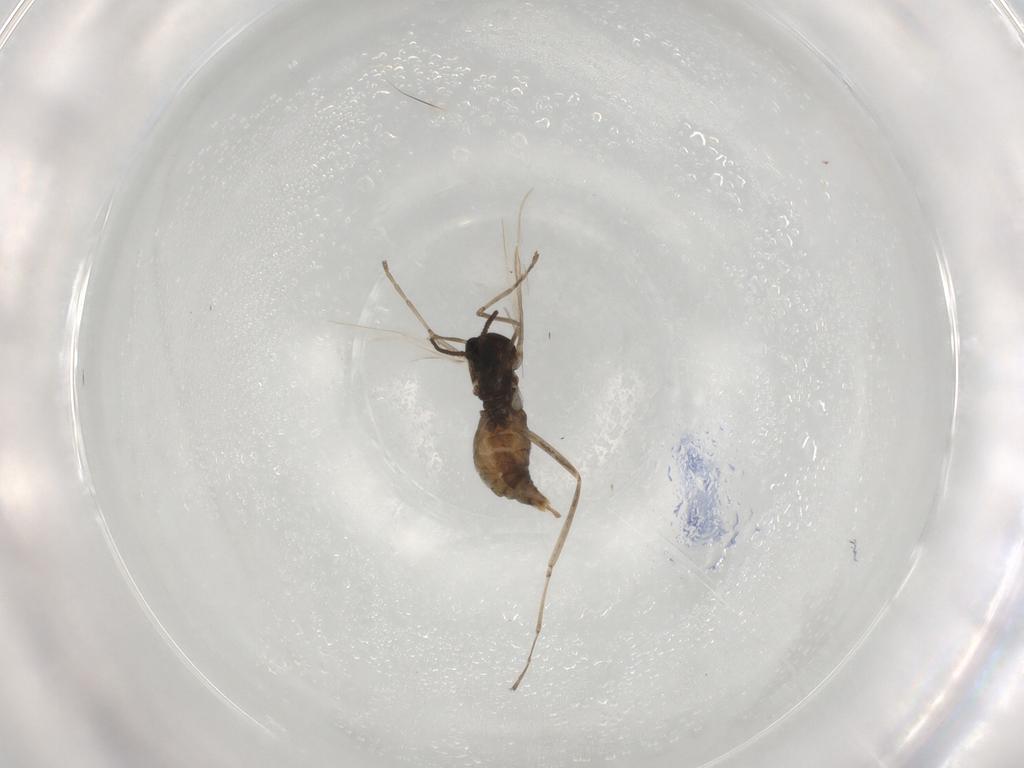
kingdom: Animalia
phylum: Arthropoda
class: Insecta
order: Diptera
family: Cecidomyiidae
